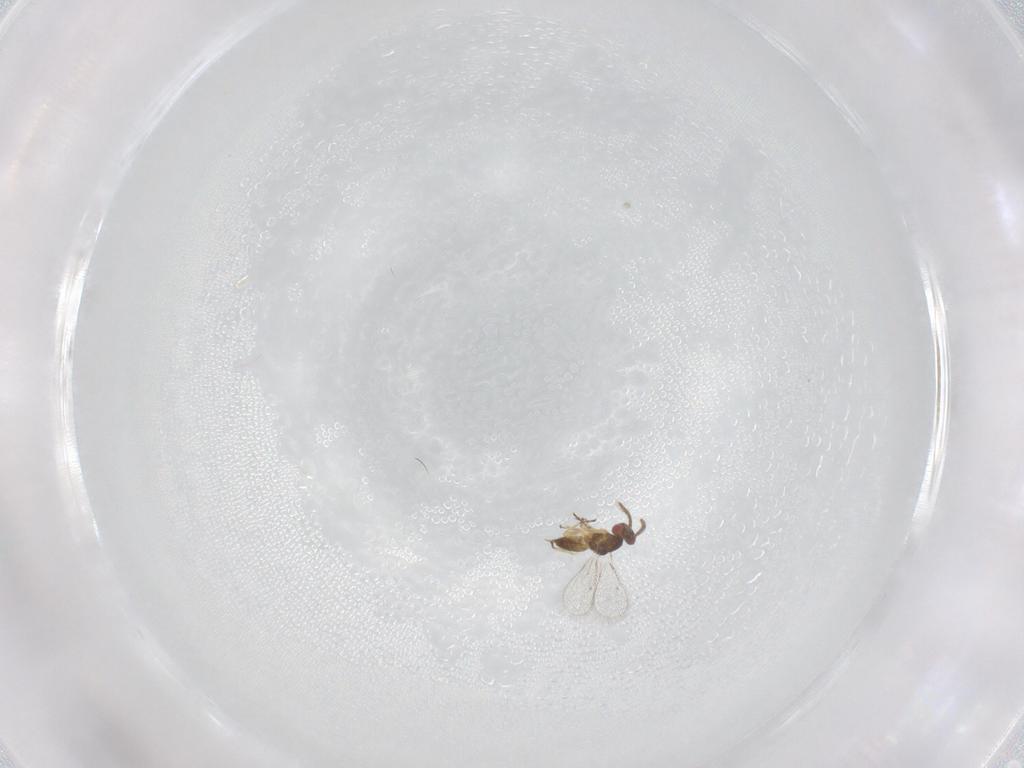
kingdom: Animalia
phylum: Arthropoda
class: Insecta
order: Hymenoptera
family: Eulophidae
